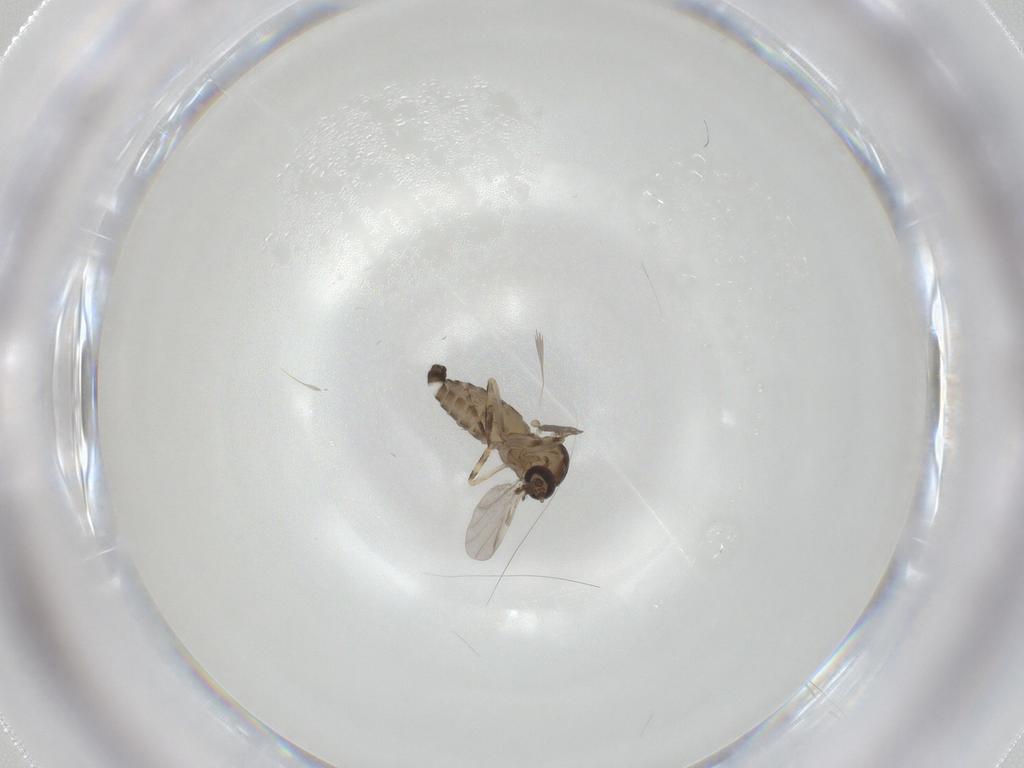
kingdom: Animalia
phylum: Arthropoda
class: Insecta
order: Diptera
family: Ceratopogonidae
